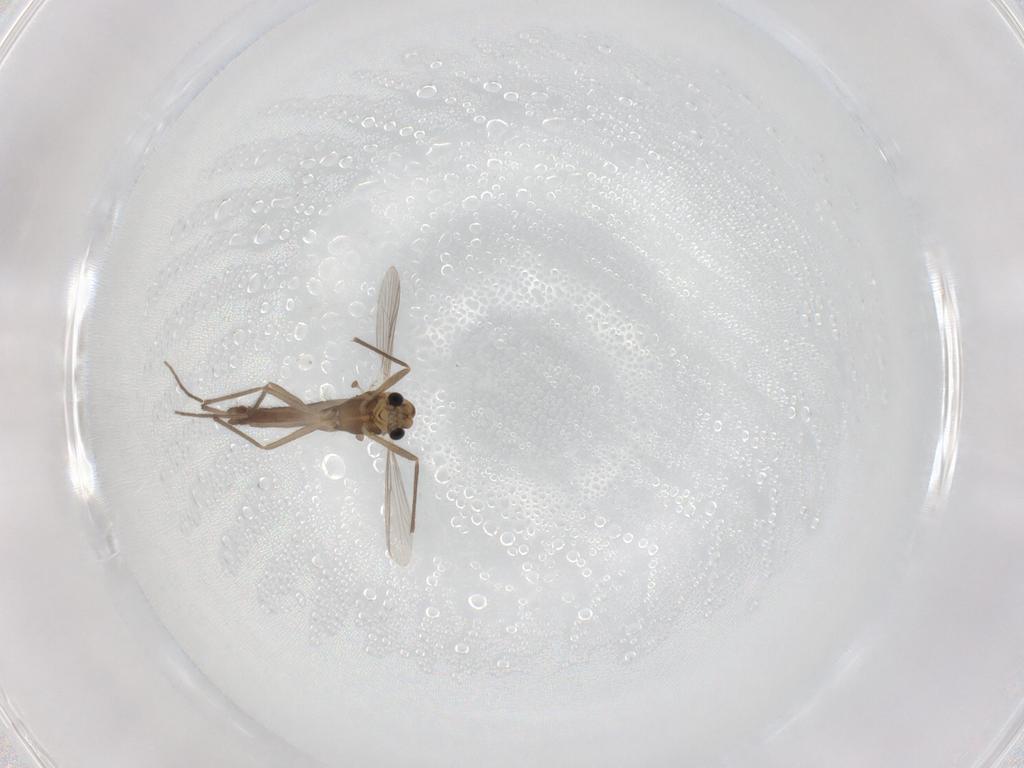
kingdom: Animalia
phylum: Arthropoda
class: Insecta
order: Diptera
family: Chironomidae
